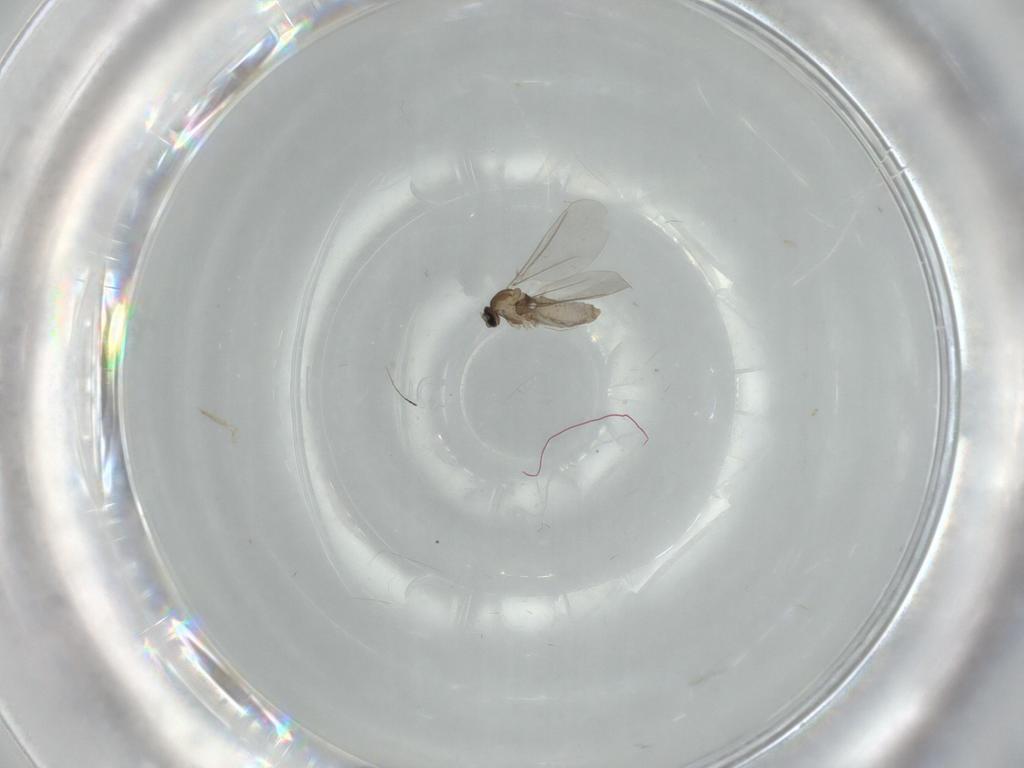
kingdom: Animalia
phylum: Arthropoda
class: Insecta
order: Diptera
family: Cecidomyiidae
